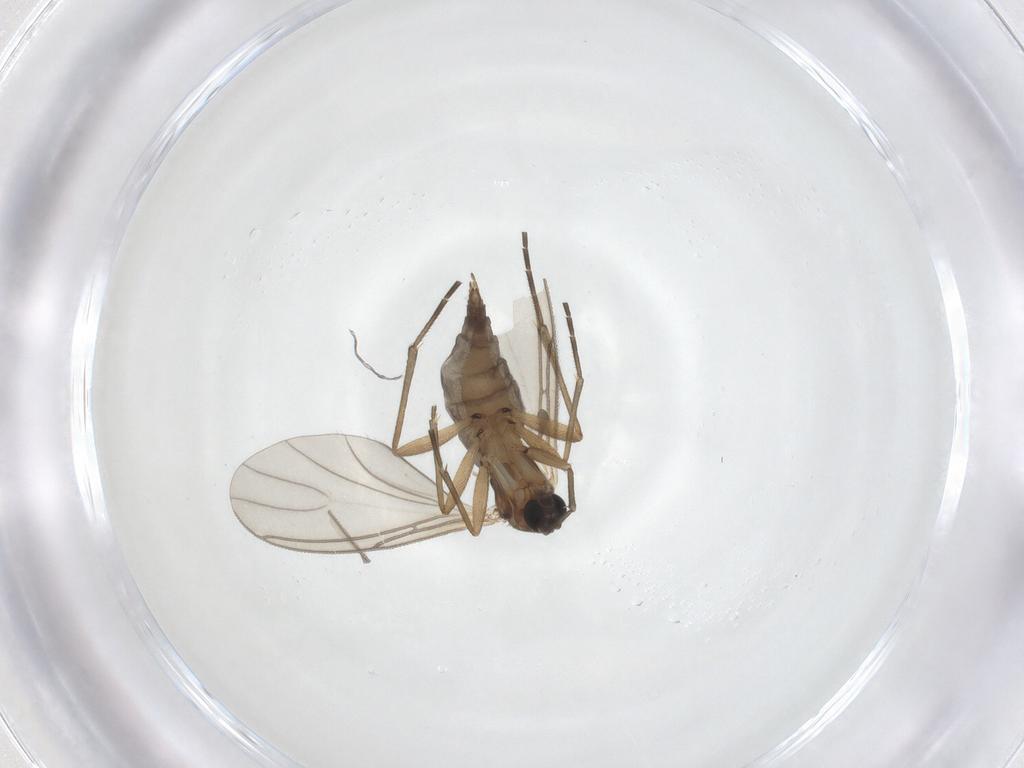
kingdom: Animalia
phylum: Arthropoda
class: Insecta
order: Diptera
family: Sciaridae
